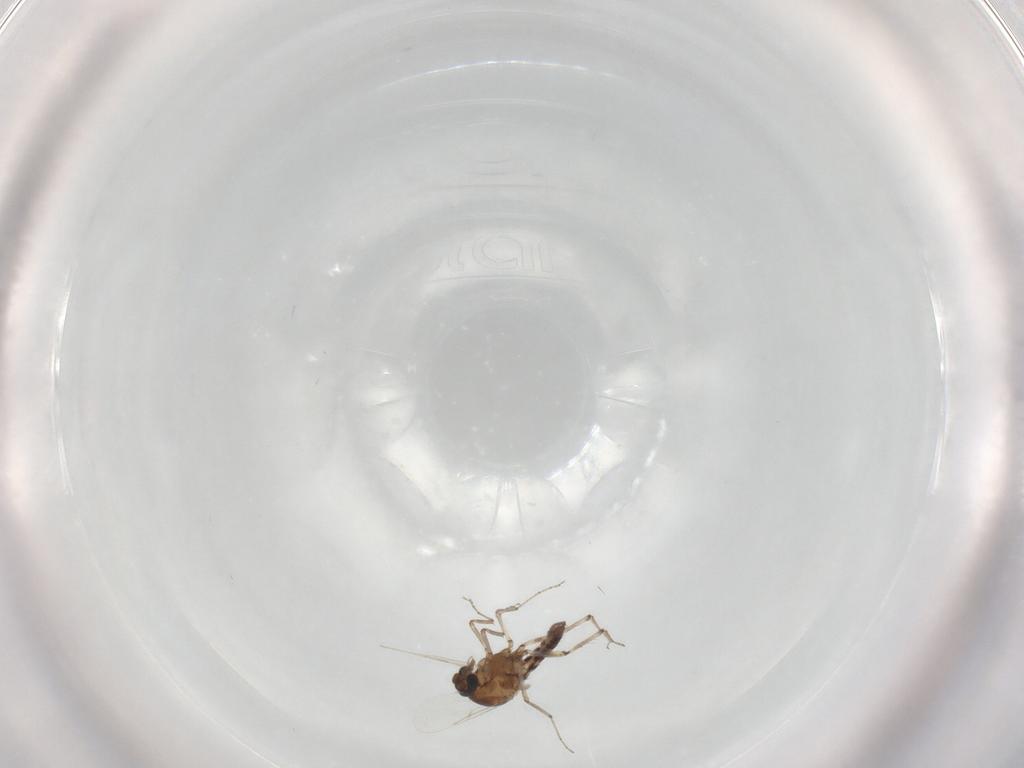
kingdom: Animalia
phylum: Arthropoda
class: Insecta
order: Diptera
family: Ceratopogonidae
